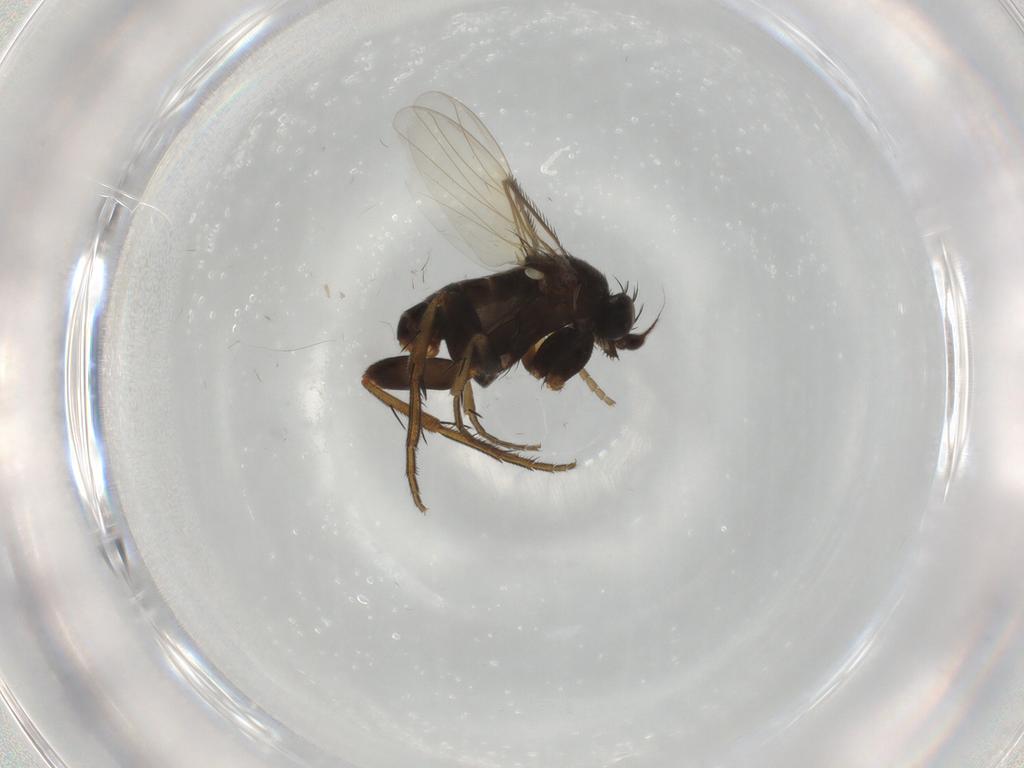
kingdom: Animalia
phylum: Arthropoda
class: Insecta
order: Diptera
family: Phoridae
